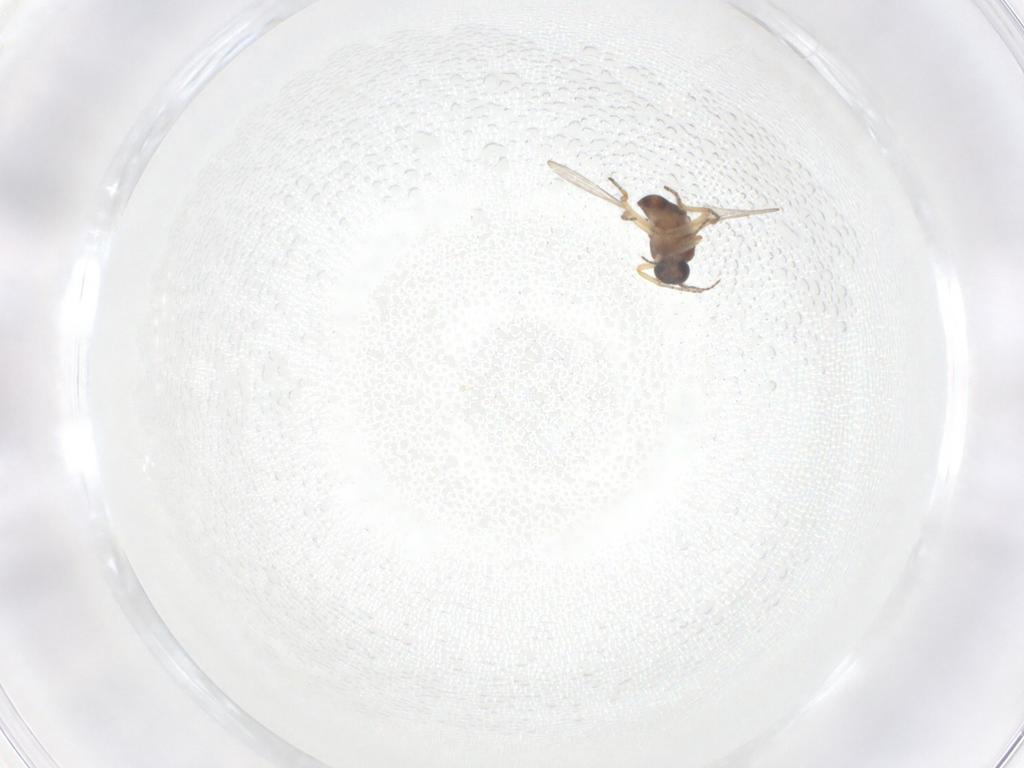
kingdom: Animalia
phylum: Arthropoda
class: Insecta
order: Diptera
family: Ceratopogonidae
